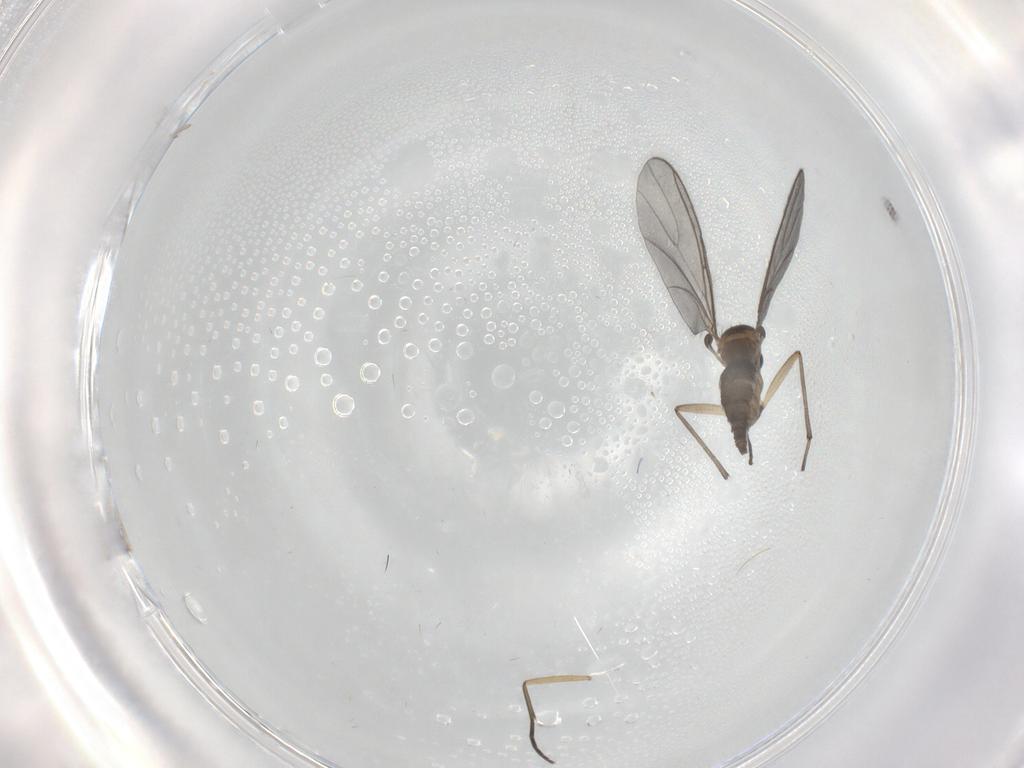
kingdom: Animalia
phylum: Arthropoda
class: Insecta
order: Diptera
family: Sciaridae
